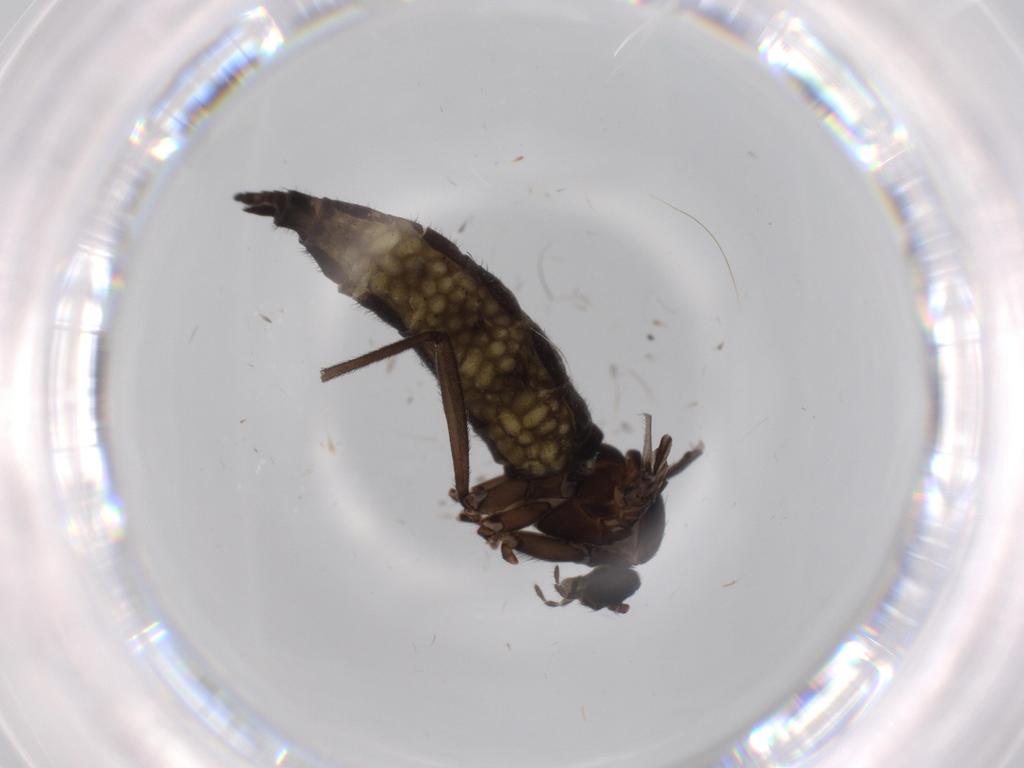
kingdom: Animalia
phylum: Arthropoda
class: Insecta
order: Diptera
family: Sciaridae
